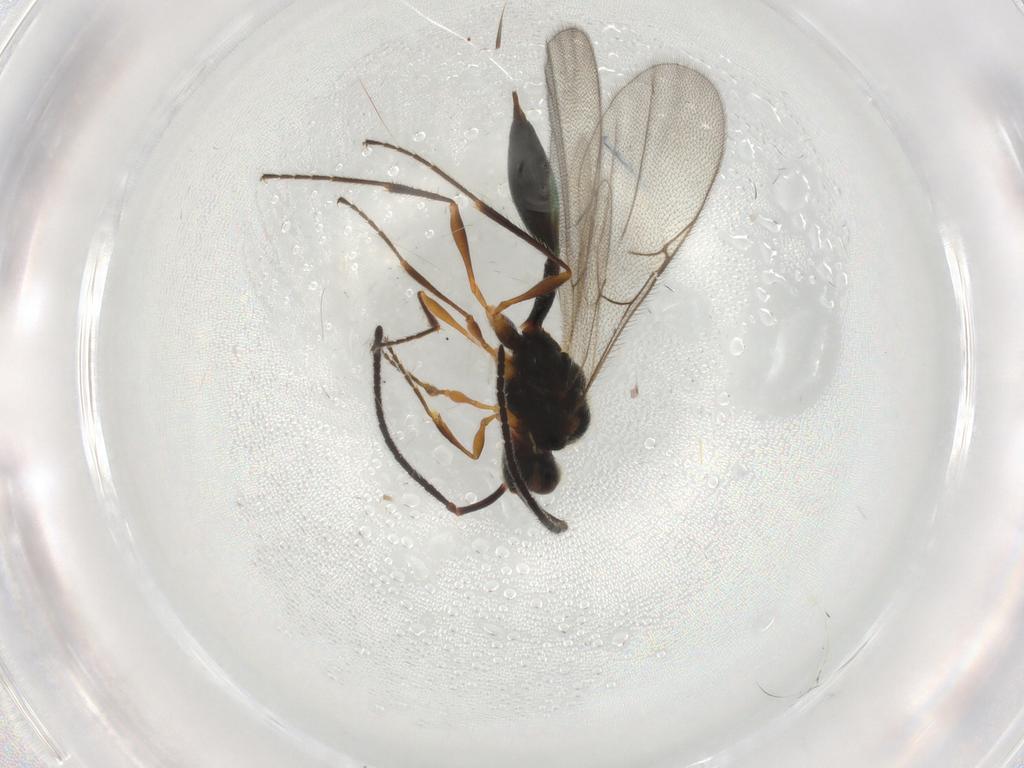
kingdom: Animalia
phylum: Arthropoda
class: Insecta
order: Hymenoptera
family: Diapriidae
